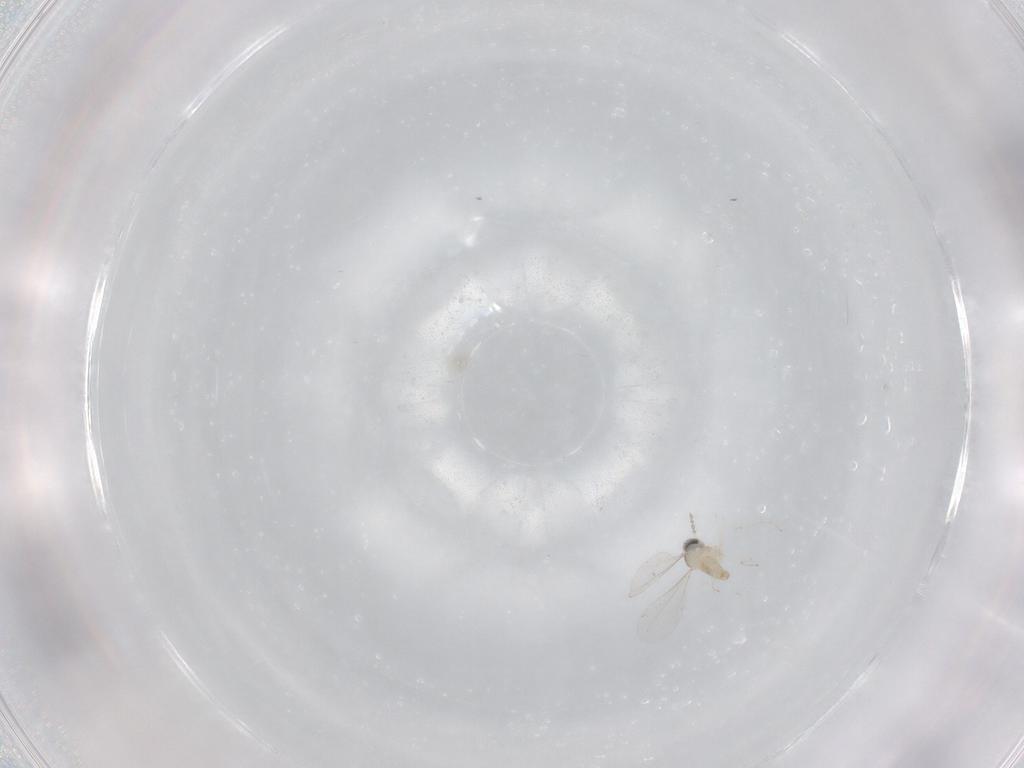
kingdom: Animalia
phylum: Arthropoda
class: Insecta
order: Diptera
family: Cecidomyiidae
